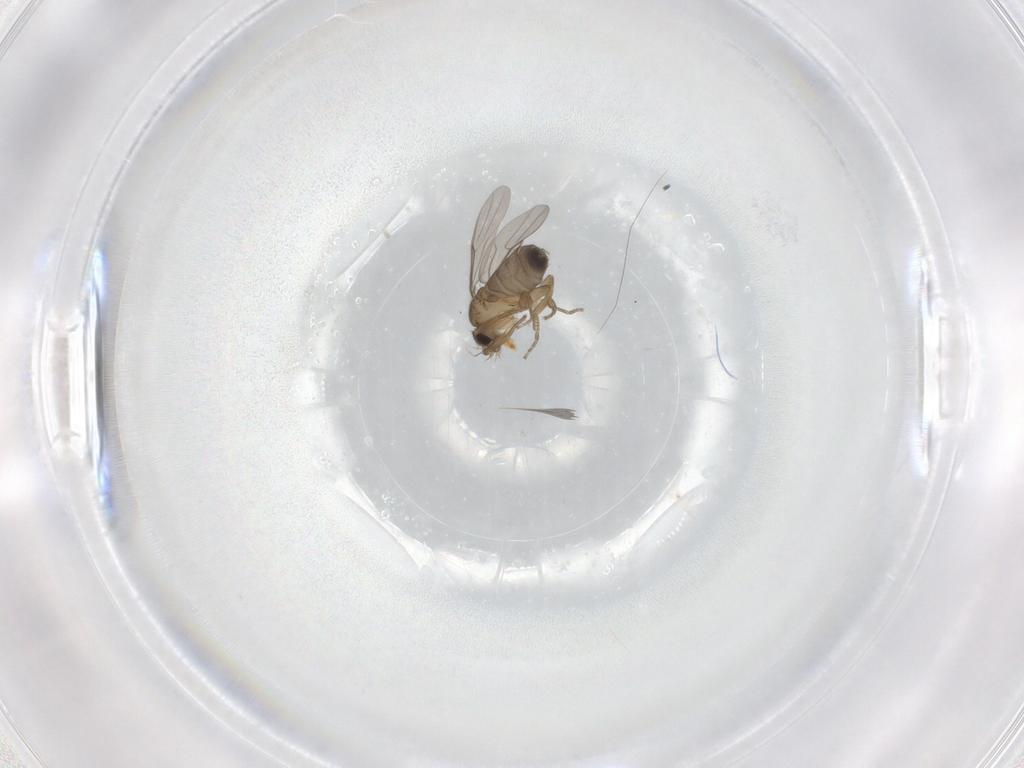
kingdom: Animalia
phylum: Arthropoda
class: Insecta
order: Diptera
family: Phoridae
